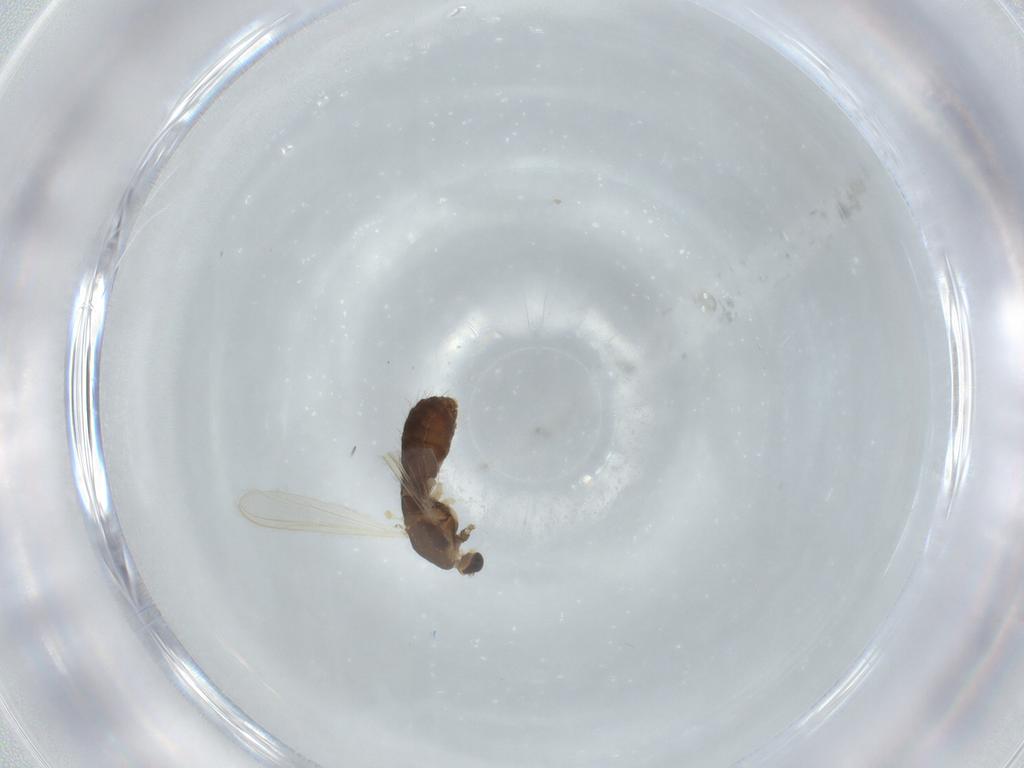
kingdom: Animalia
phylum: Arthropoda
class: Insecta
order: Diptera
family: Chironomidae
